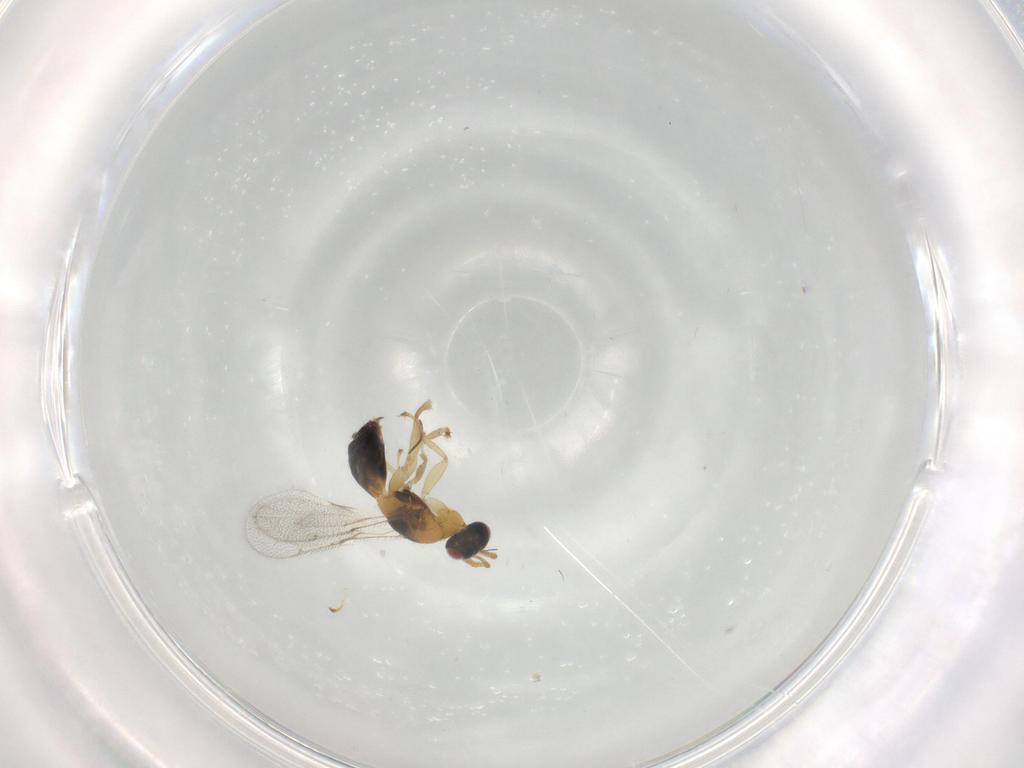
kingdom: Animalia
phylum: Arthropoda
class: Insecta
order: Hymenoptera
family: Torymidae
